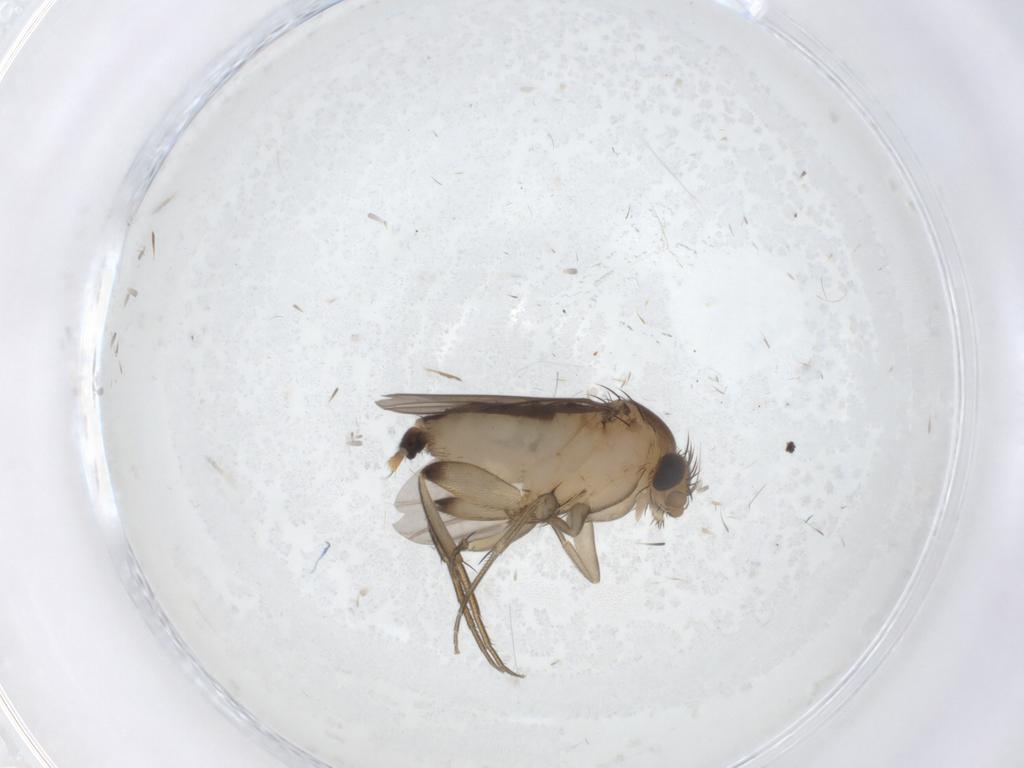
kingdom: Animalia
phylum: Arthropoda
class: Insecta
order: Diptera
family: Phoridae
